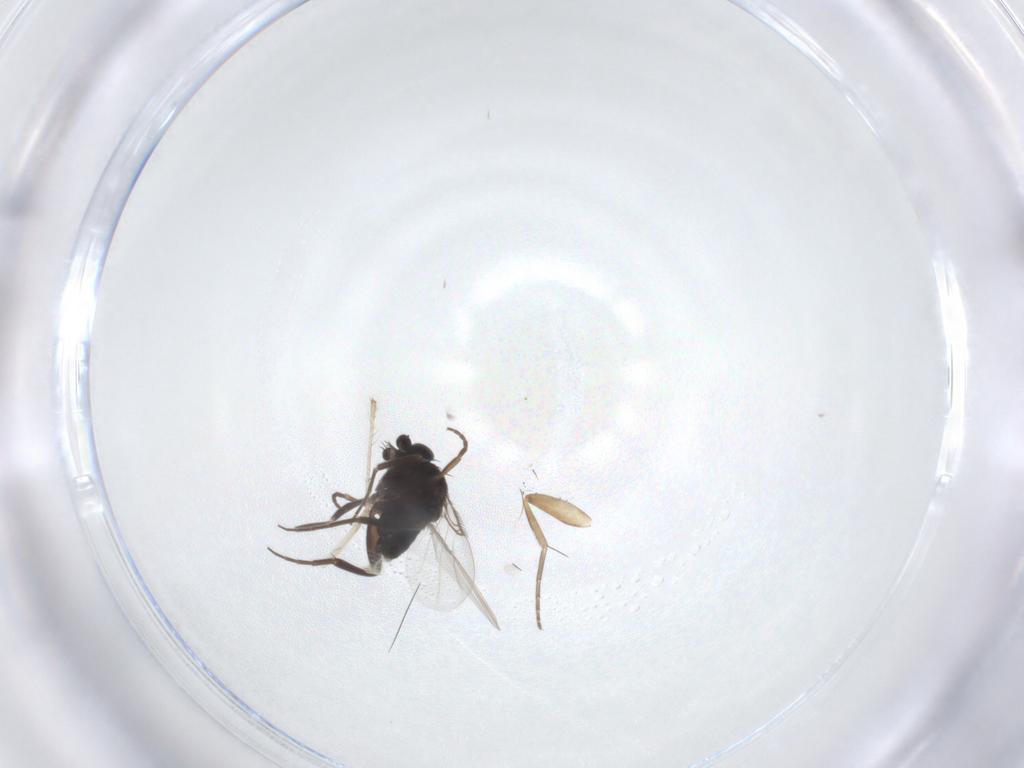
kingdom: Animalia
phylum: Arthropoda
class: Insecta
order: Diptera
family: Phoridae
